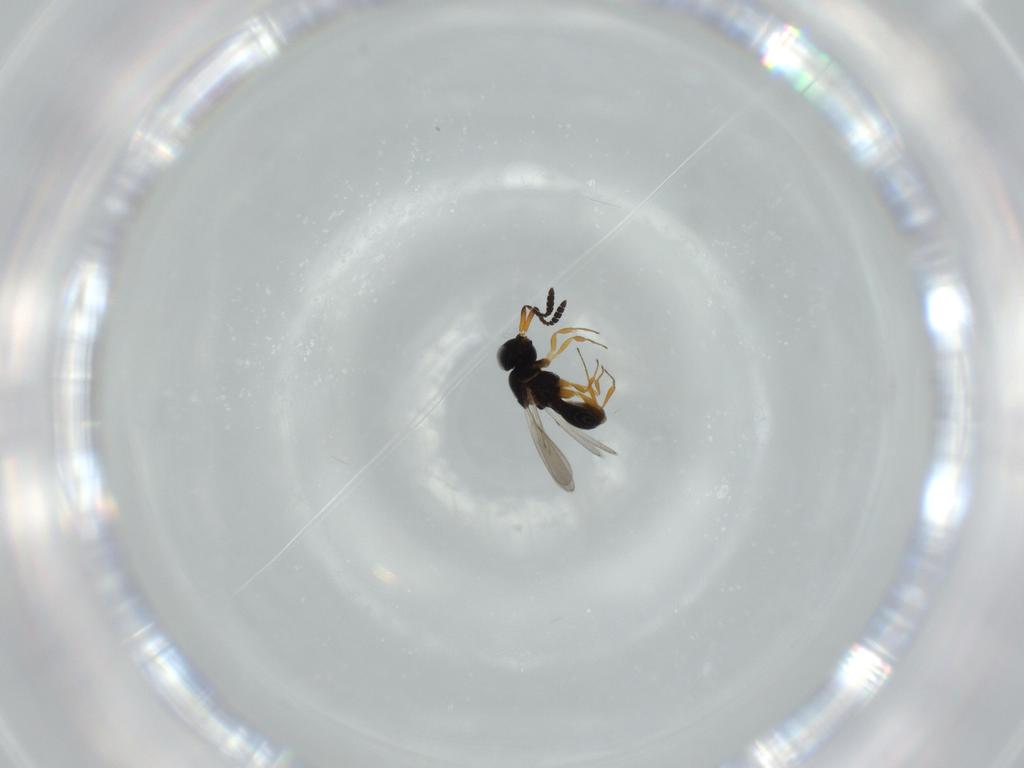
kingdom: Animalia
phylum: Arthropoda
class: Insecta
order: Hymenoptera
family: Scelionidae
